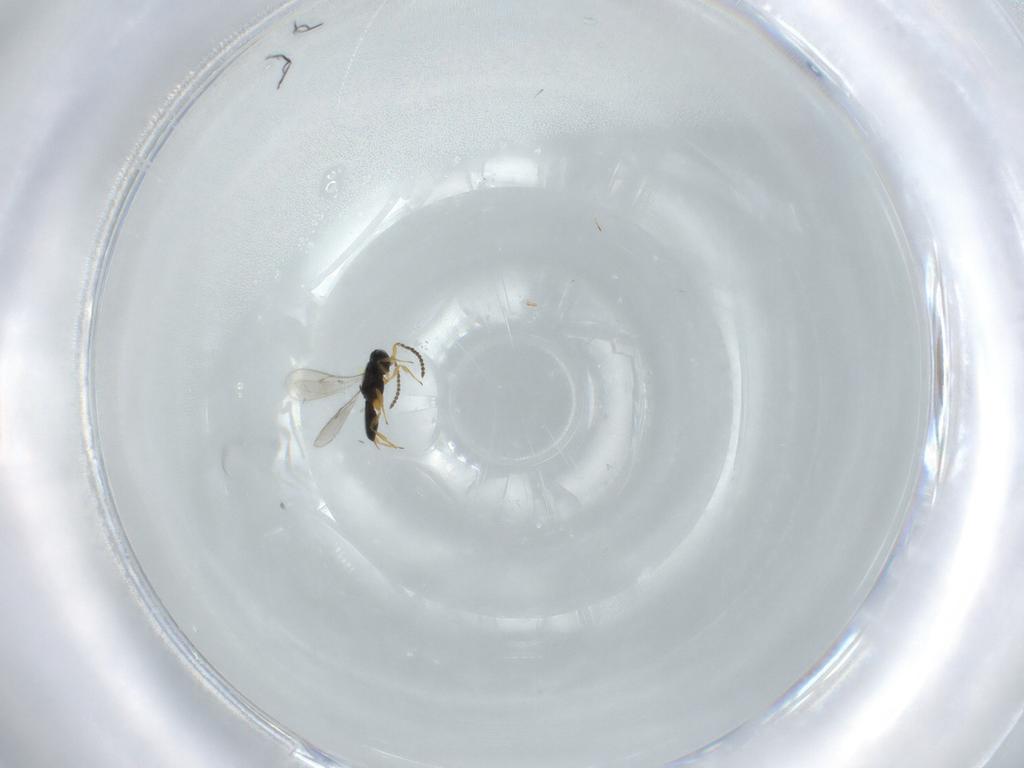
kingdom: Animalia
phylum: Arthropoda
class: Insecta
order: Hymenoptera
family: Scelionidae
